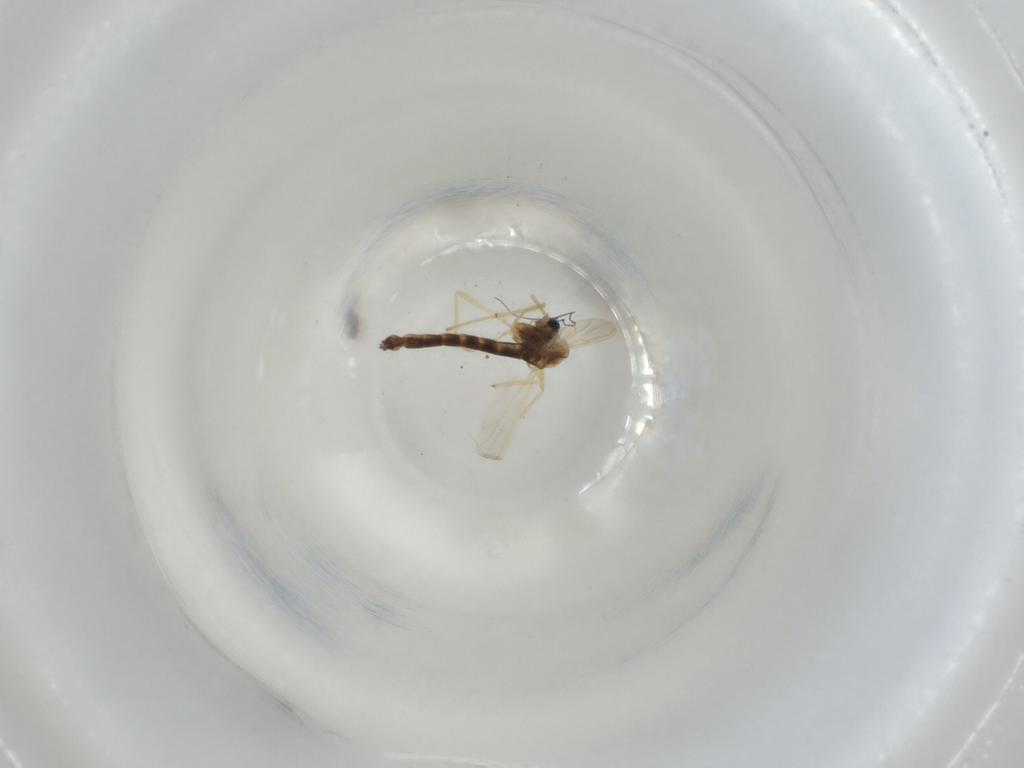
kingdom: Animalia
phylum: Arthropoda
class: Insecta
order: Diptera
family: Chironomidae
